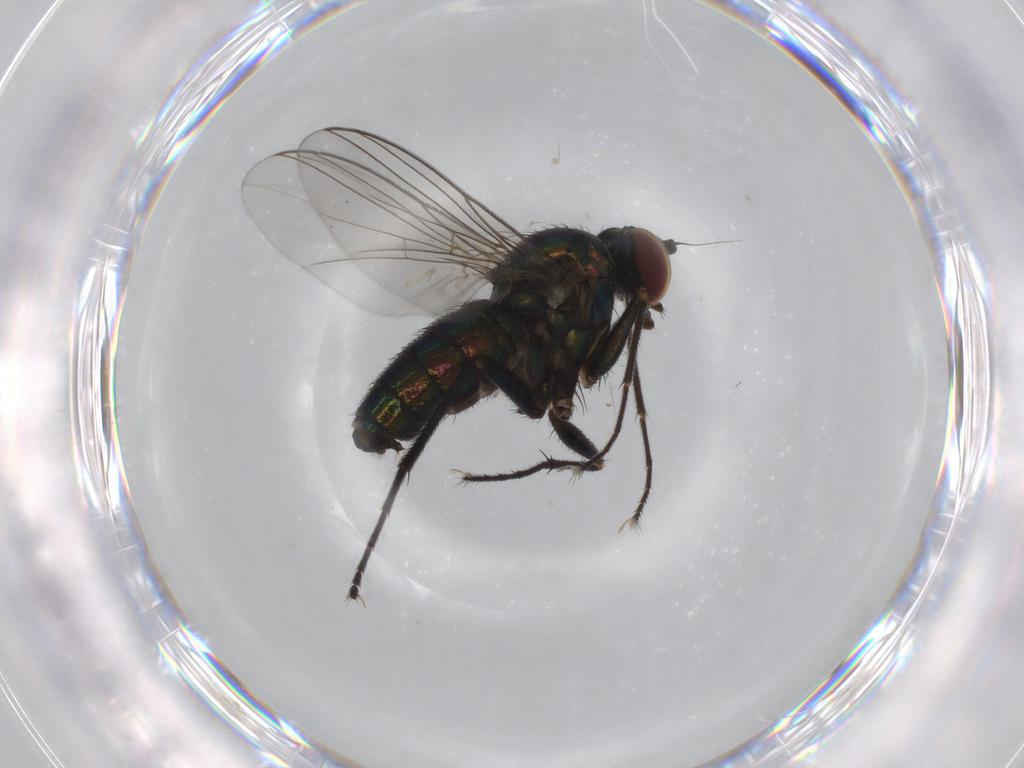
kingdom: Animalia
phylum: Arthropoda
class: Insecta
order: Diptera
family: Dolichopodidae
